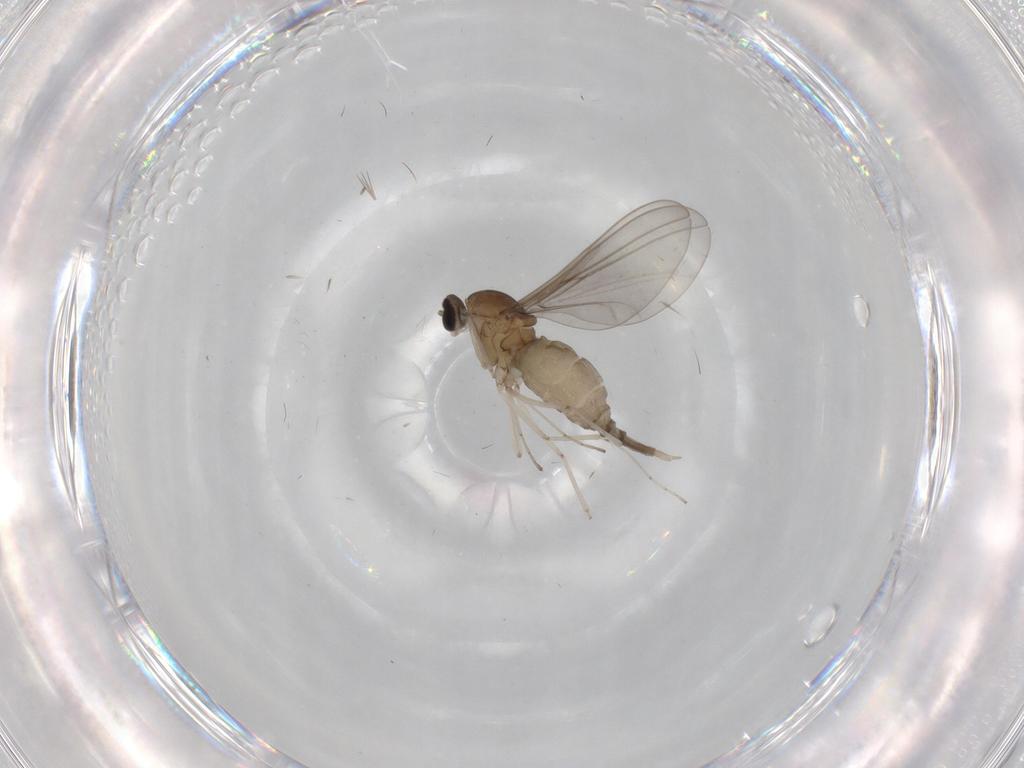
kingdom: Animalia
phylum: Arthropoda
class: Insecta
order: Diptera
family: Cecidomyiidae
